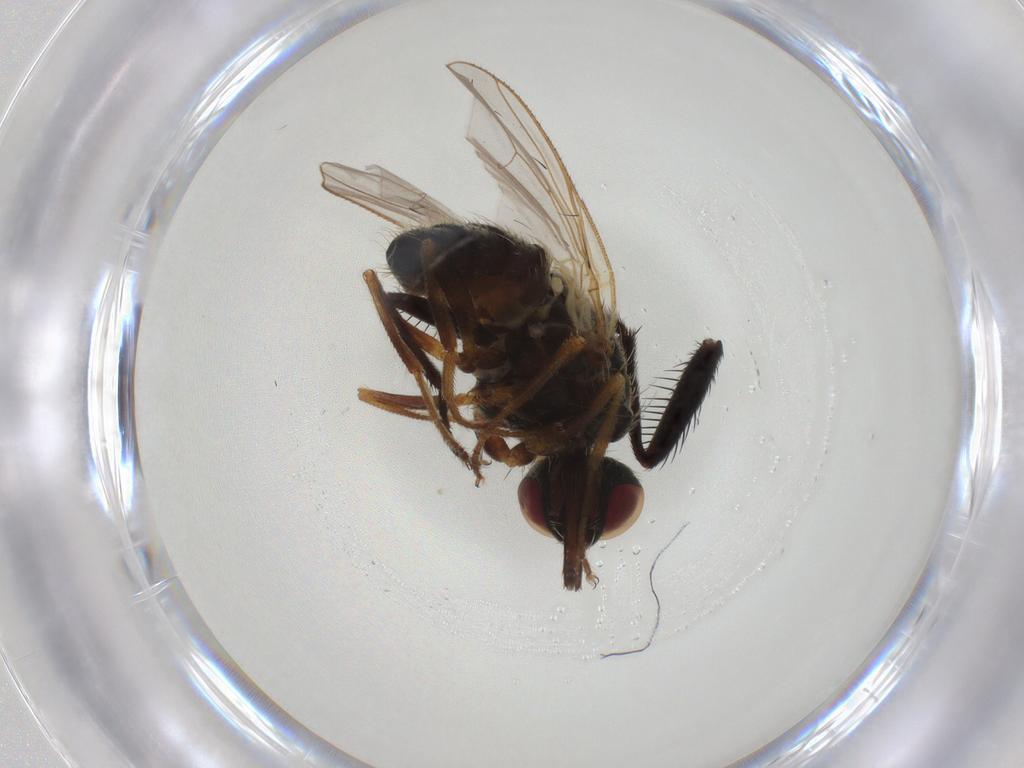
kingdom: Animalia
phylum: Arthropoda
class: Insecta
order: Diptera
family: Muscidae
